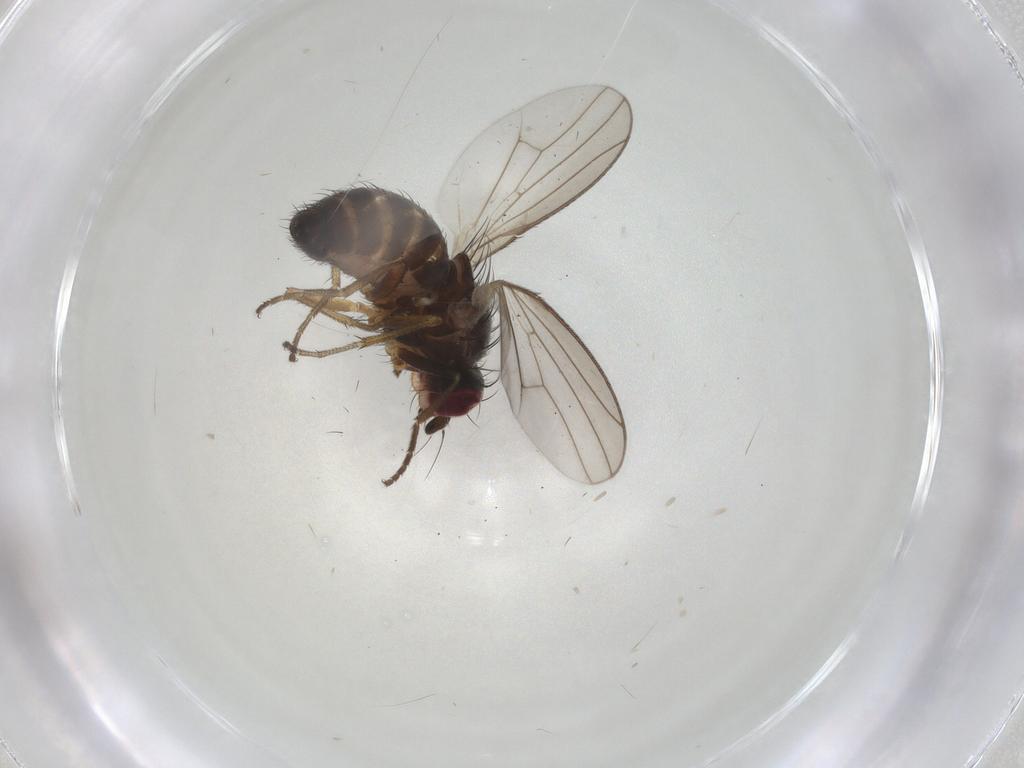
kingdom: Animalia
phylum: Arthropoda
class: Insecta
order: Diptera
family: Heleomyzidae
